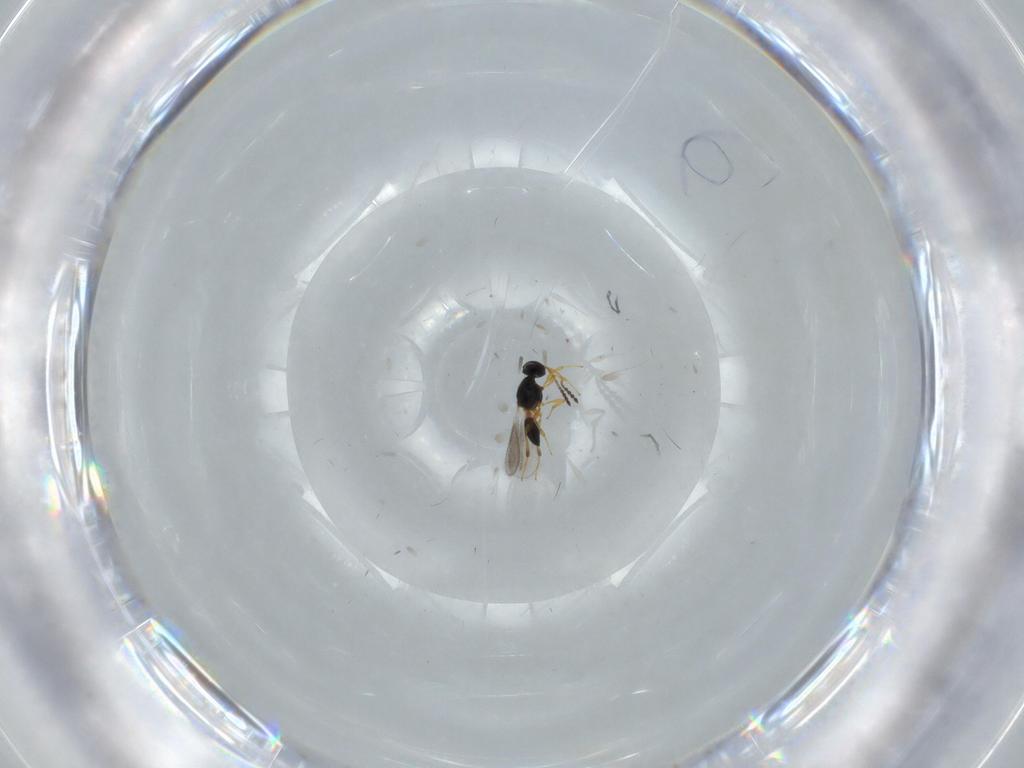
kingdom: Animalia
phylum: Arthropoda
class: Insecta
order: Hymenoptera
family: Platygastridae
